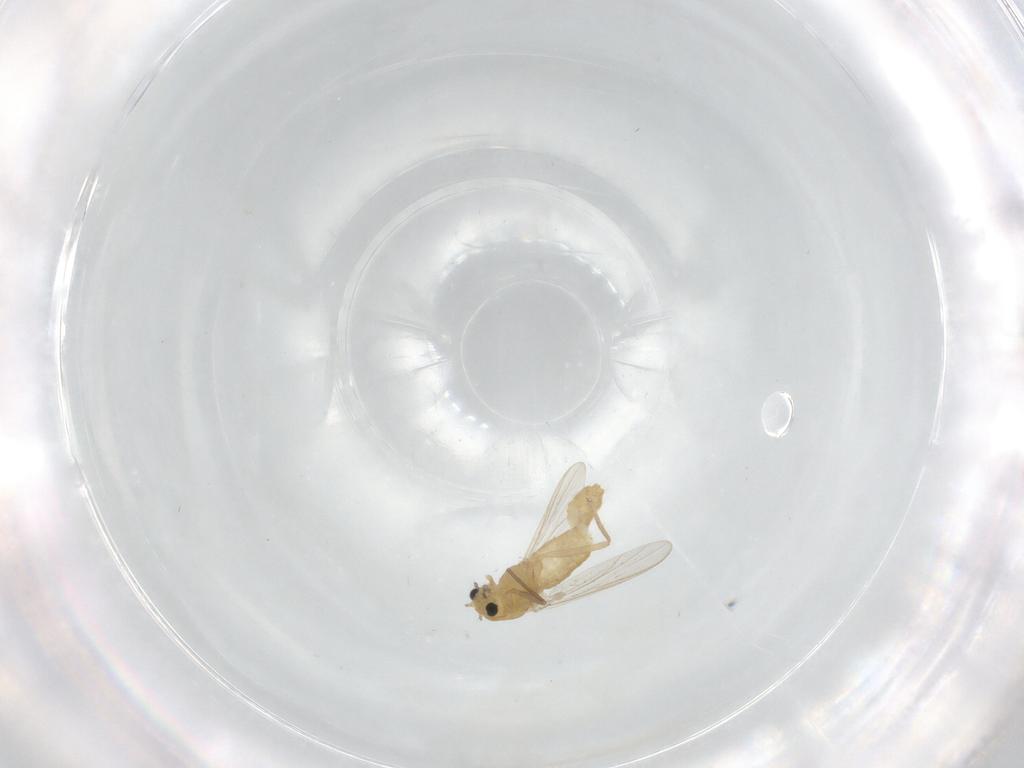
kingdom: Animalia
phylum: Arthropoda
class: Insecta
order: Diptera
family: Chironomidae
